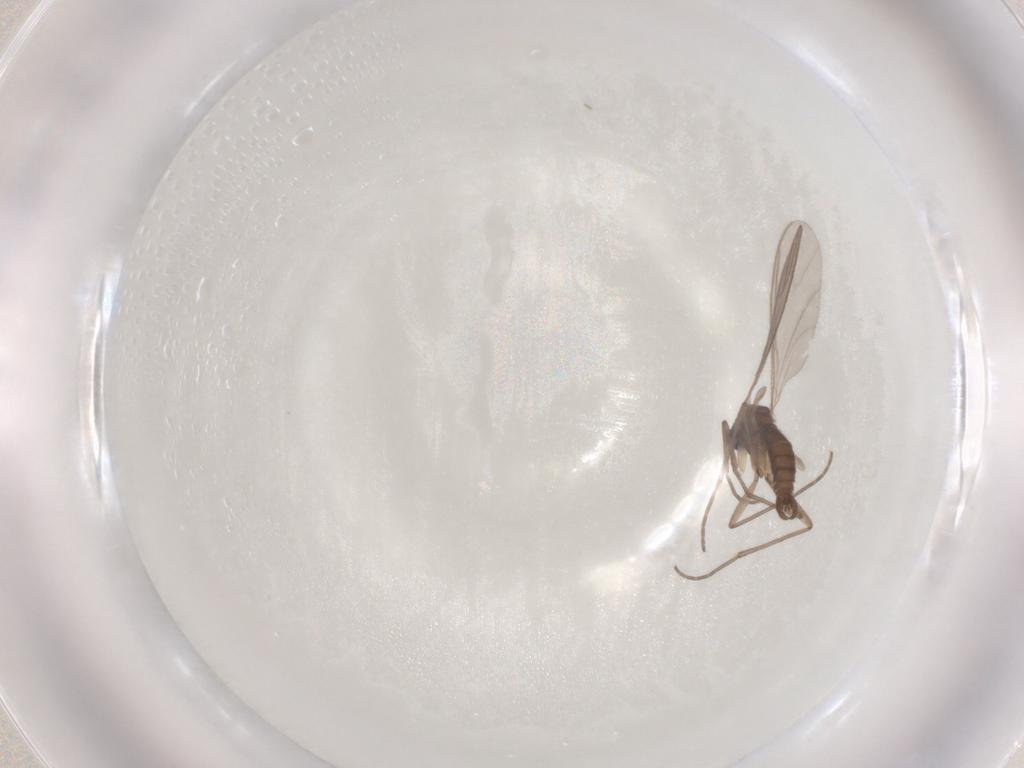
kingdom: Animalia
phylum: Arthropoda
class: Insecta
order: Diptera
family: Sciaridae
